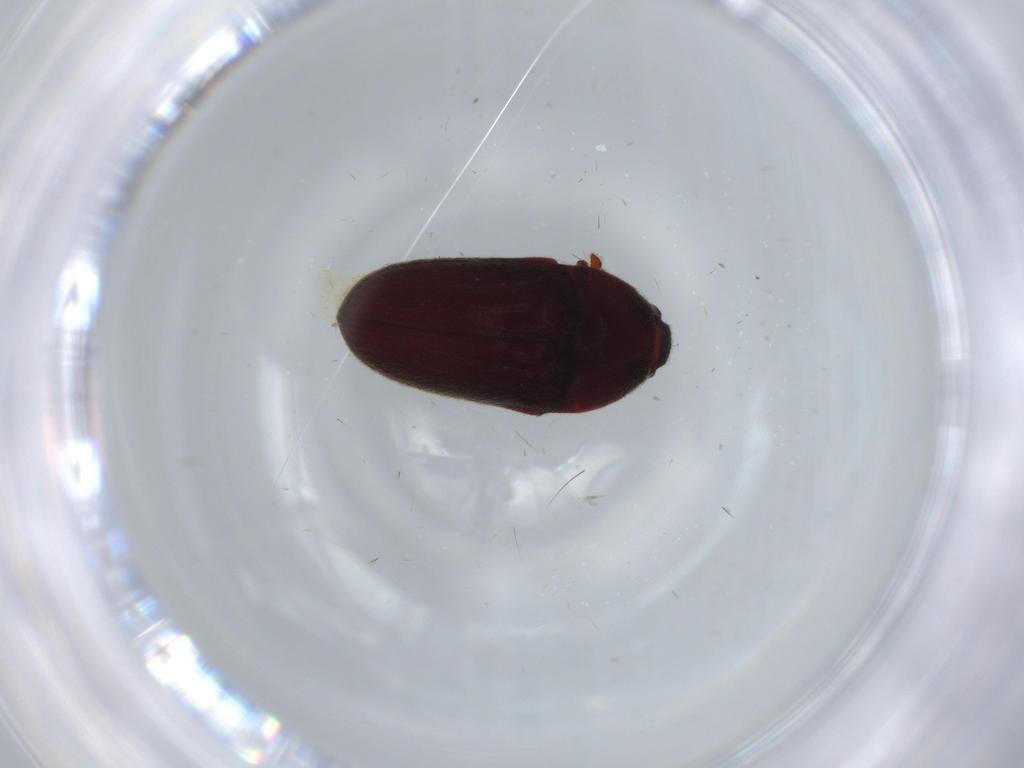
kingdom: Animalia
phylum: Arthropoda
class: Insecta
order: Coleoptera
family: Throscidae
